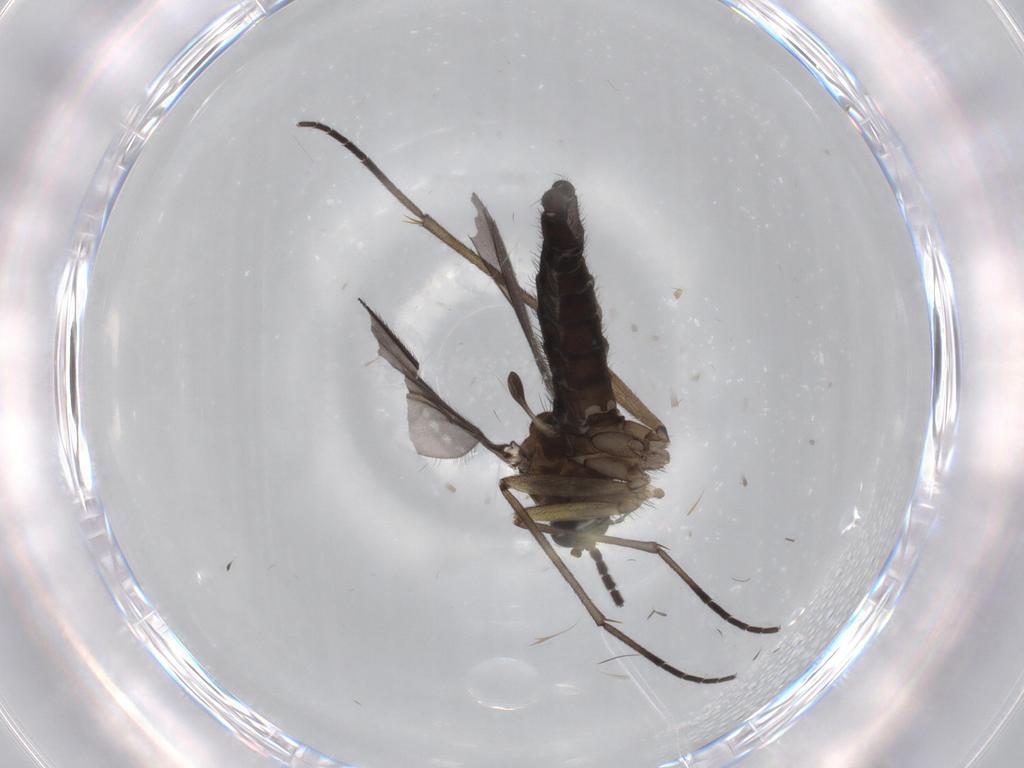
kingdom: Animalia
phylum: Arthropoda
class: Insecta
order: Diptera
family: Sciaridae
